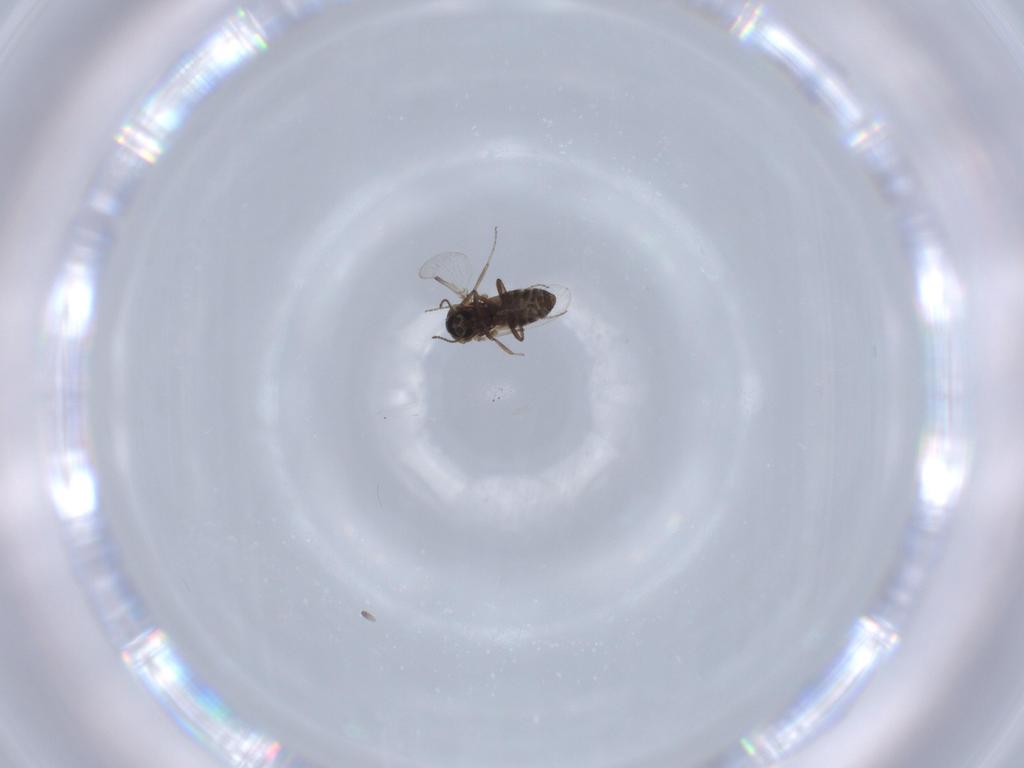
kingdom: Animalia
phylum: Arthropoda
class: Insecta
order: Diptera
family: Ceratopogonidae
